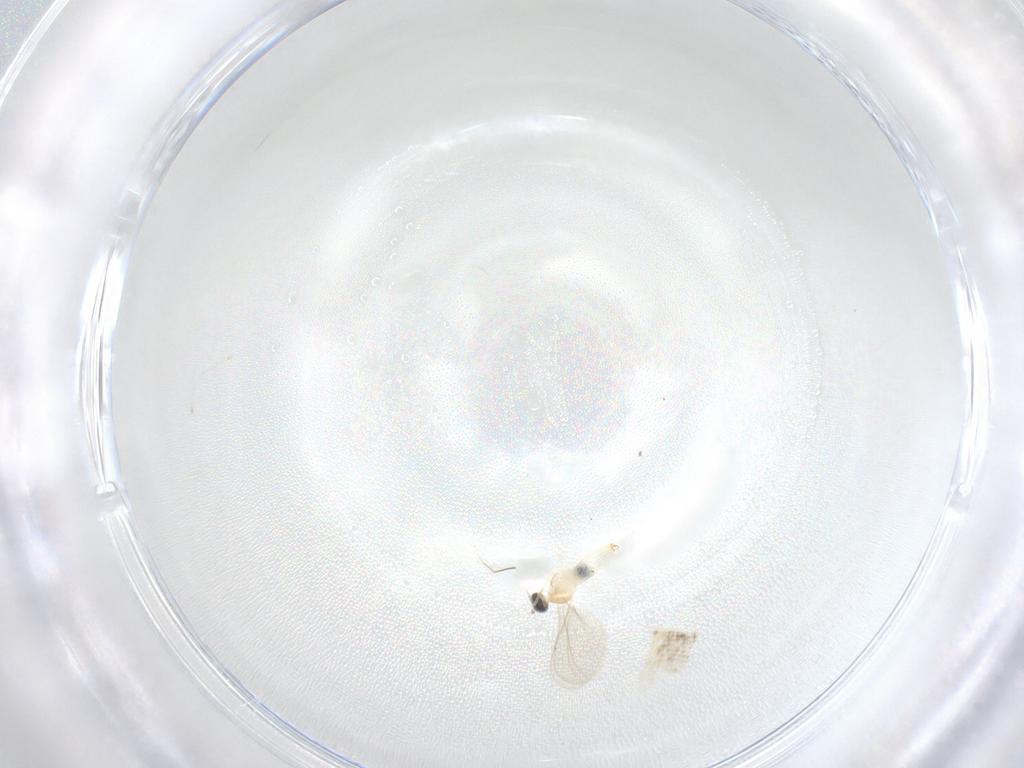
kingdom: Animalia
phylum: Arthropoda
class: Insecta
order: Diptera
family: Cecidomyiidae
